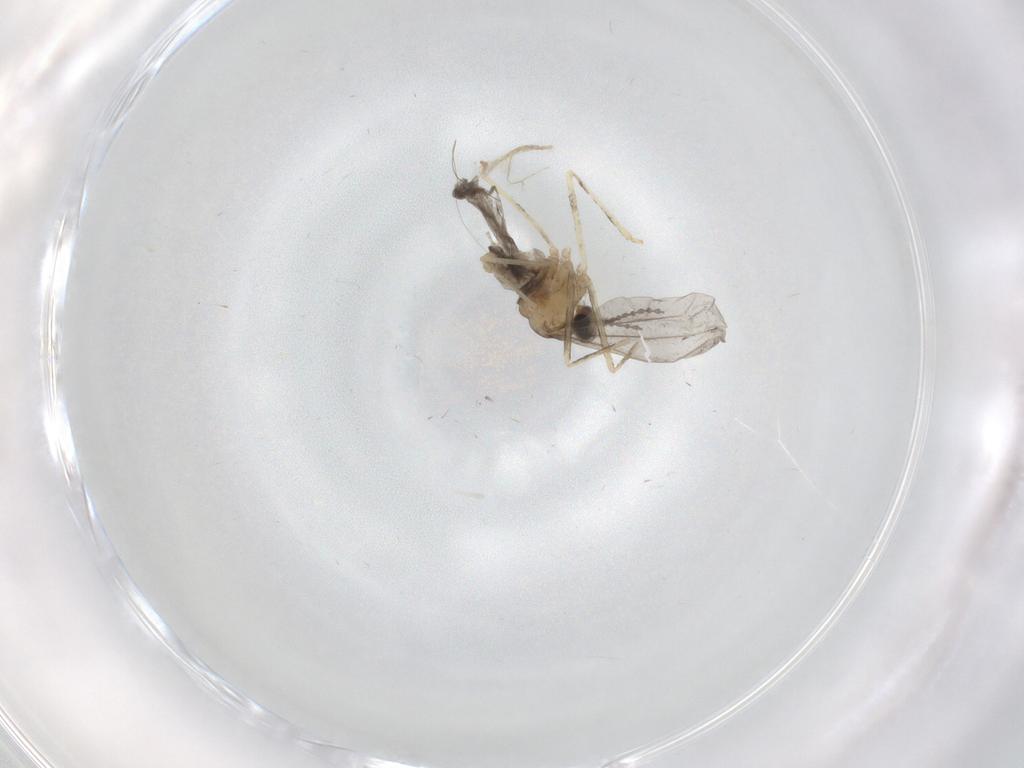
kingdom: Animalia
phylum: Arthropoda
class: Insecta
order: Diptera
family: Cecidomyiidae
